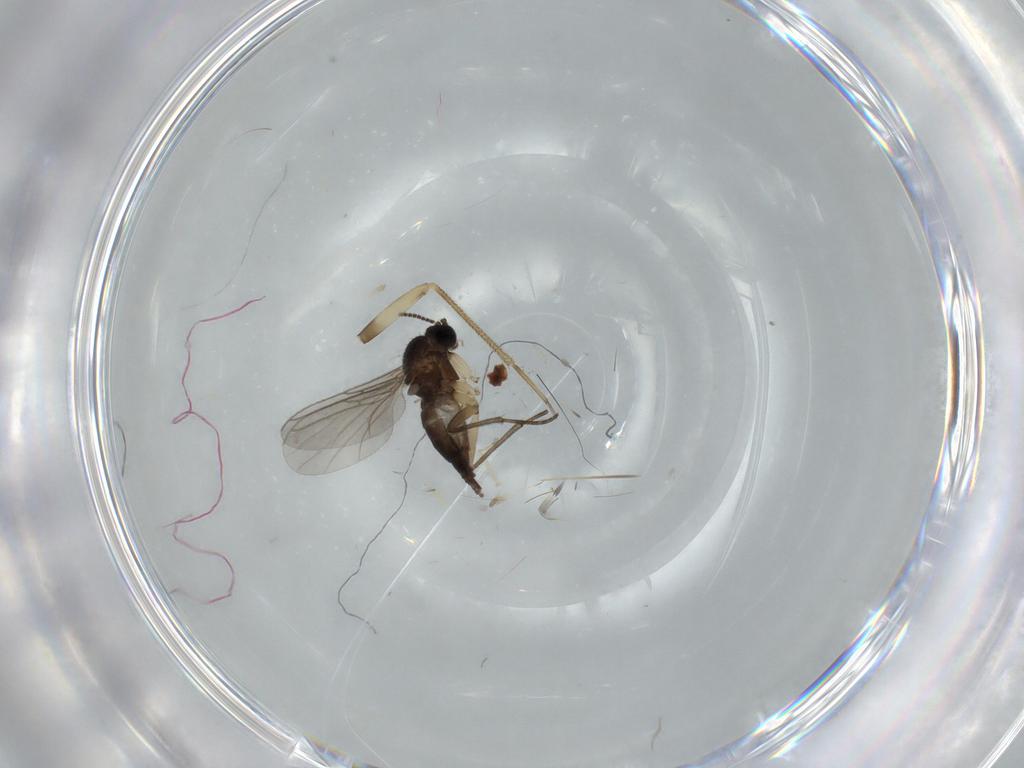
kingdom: Animalia
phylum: Arthropoda
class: Insecta
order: Diptera
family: Sciaridae
